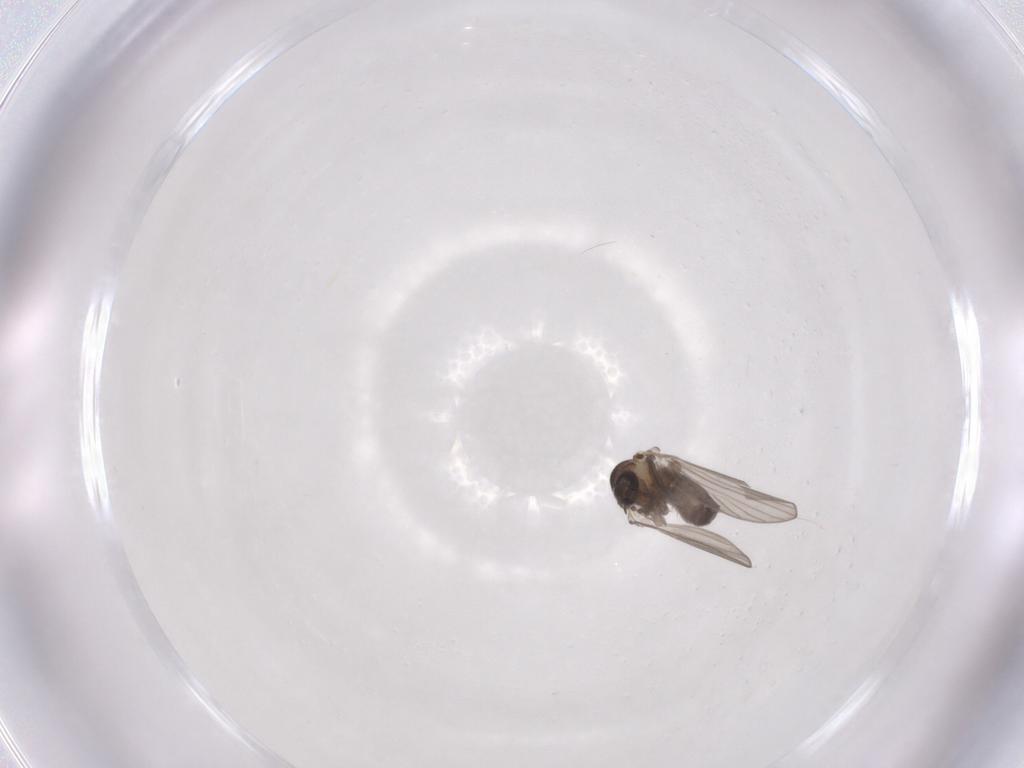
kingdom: Animalia
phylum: Arthropoda
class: Insecta
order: Diptera
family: Psychodidae
